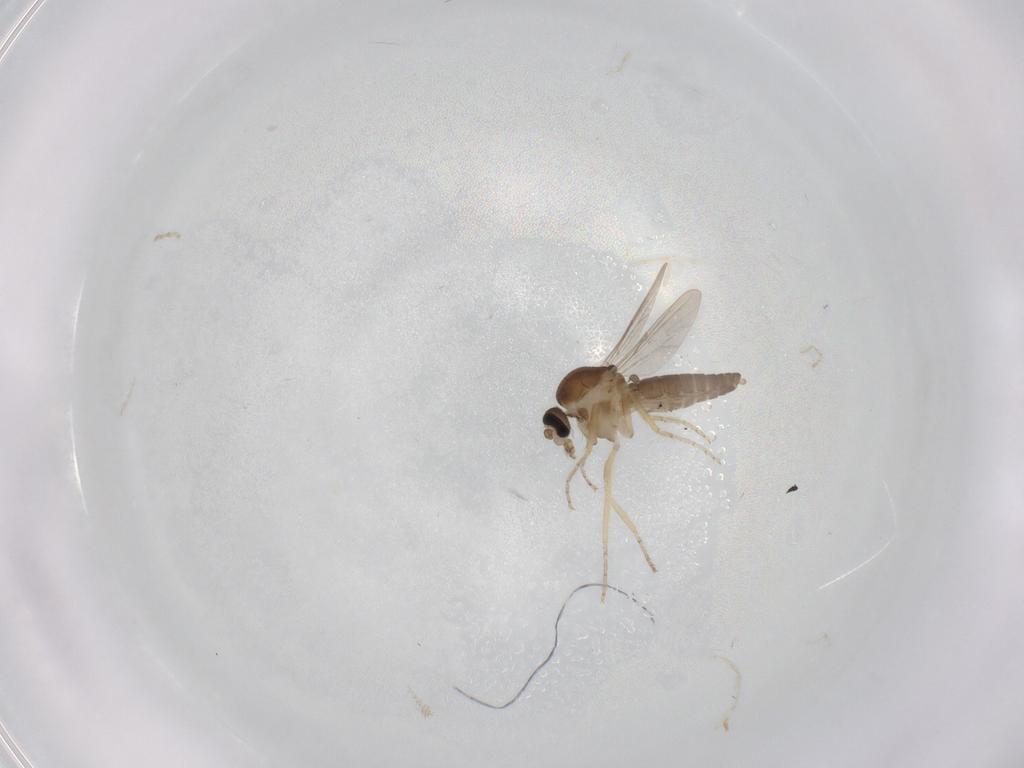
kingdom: Animalia
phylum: Arthropoda
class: Insecta
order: Diptera
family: Ceratopogonidae
